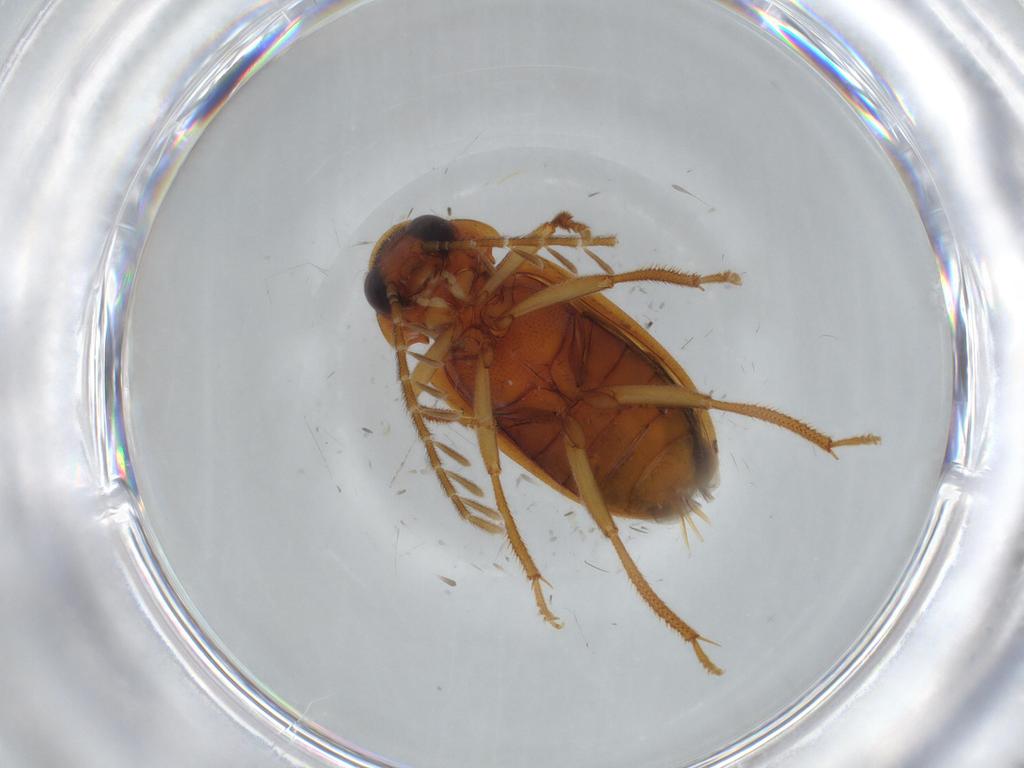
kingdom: Animalia
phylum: Arthropoda
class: Insecta
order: Coleoptera
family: Ptilodactylidae
